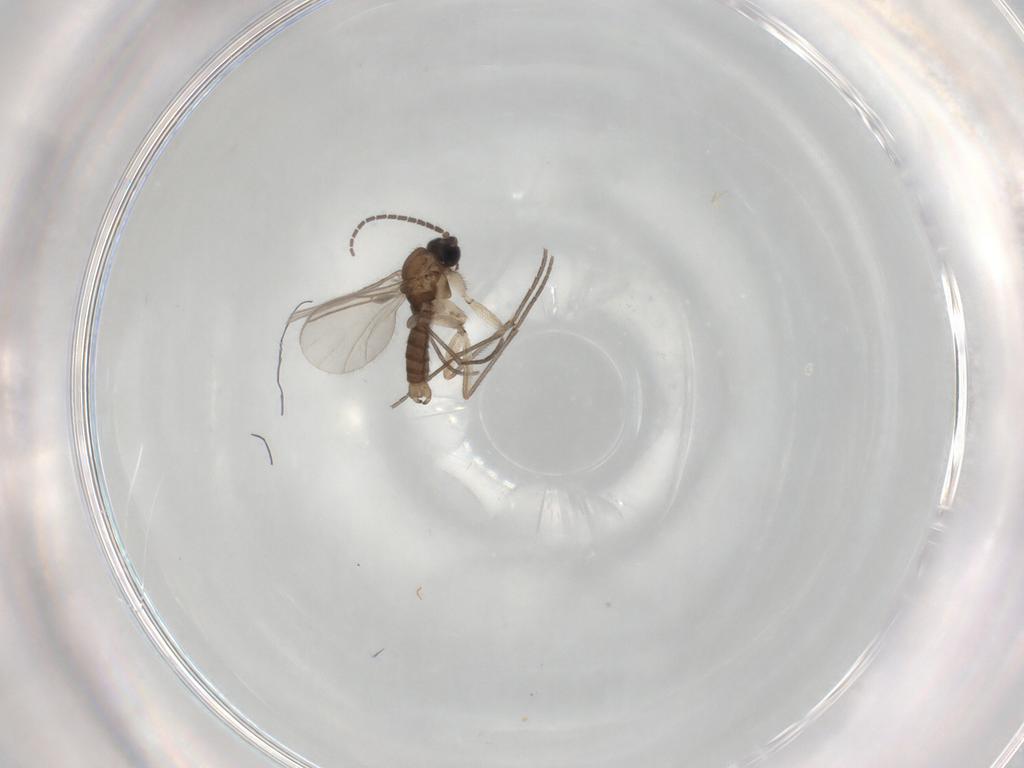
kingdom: Animalia
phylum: Arthropoda
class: Insecta
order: Diptera
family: Sciaridae
